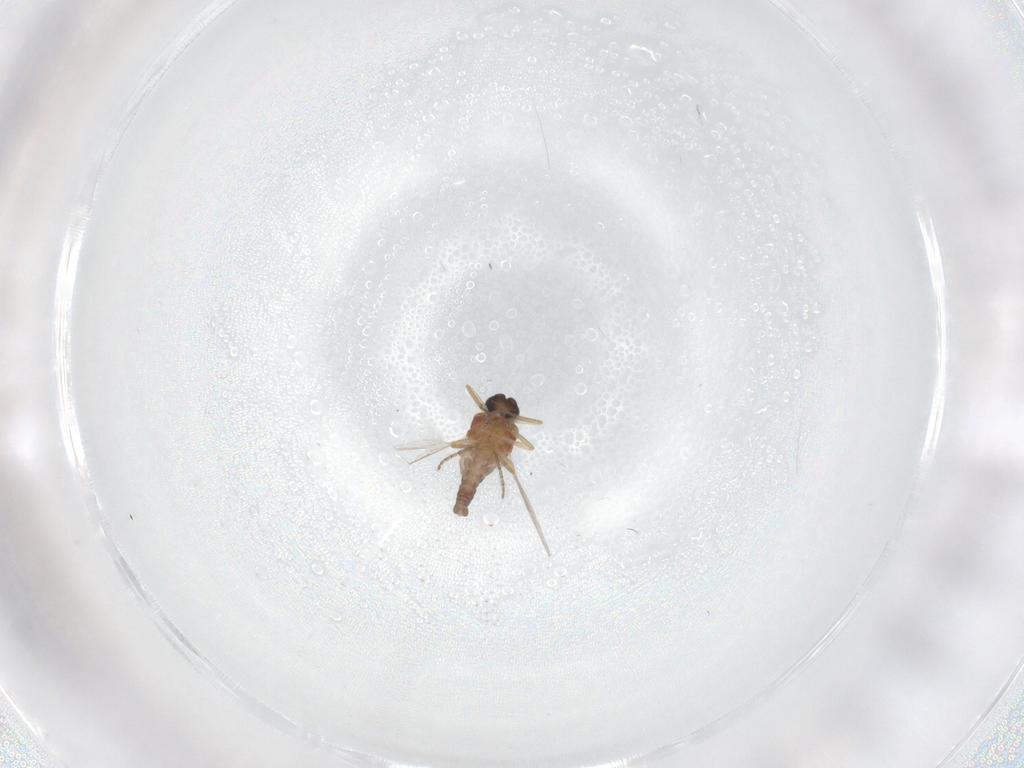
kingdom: Animalia
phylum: Arthropoda
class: Insecta
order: Diptera
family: Ceratopogonidae
